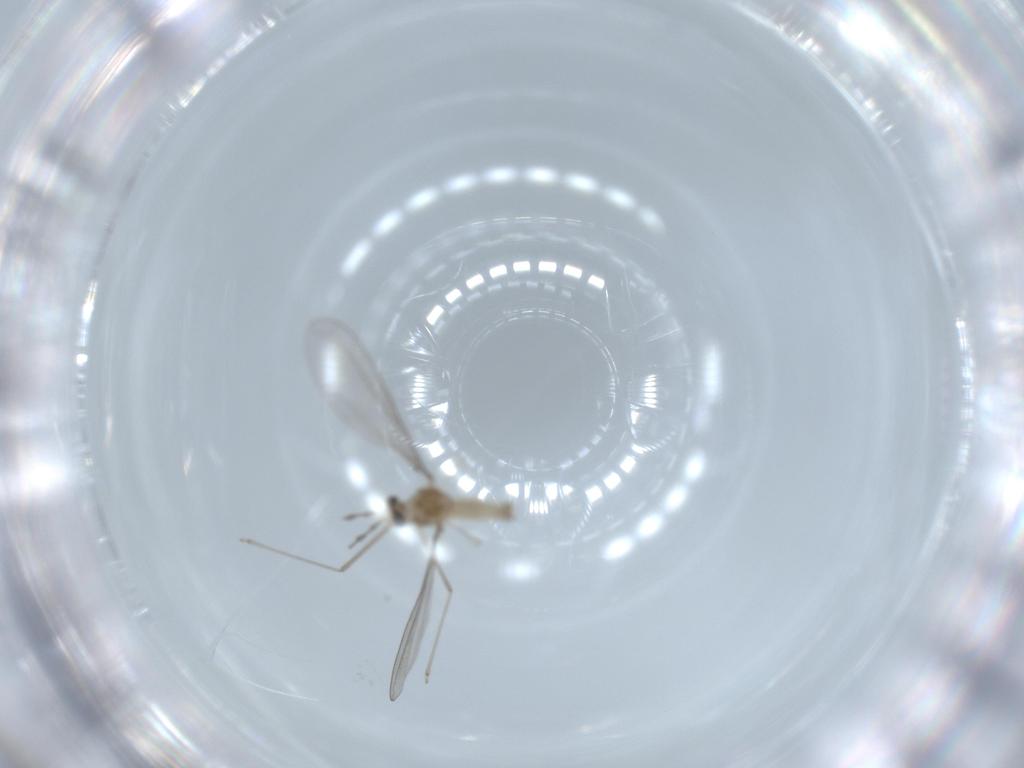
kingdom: Animalia
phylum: Arthropoda
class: Insecta
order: Diptera
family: Cecidomyiidae
